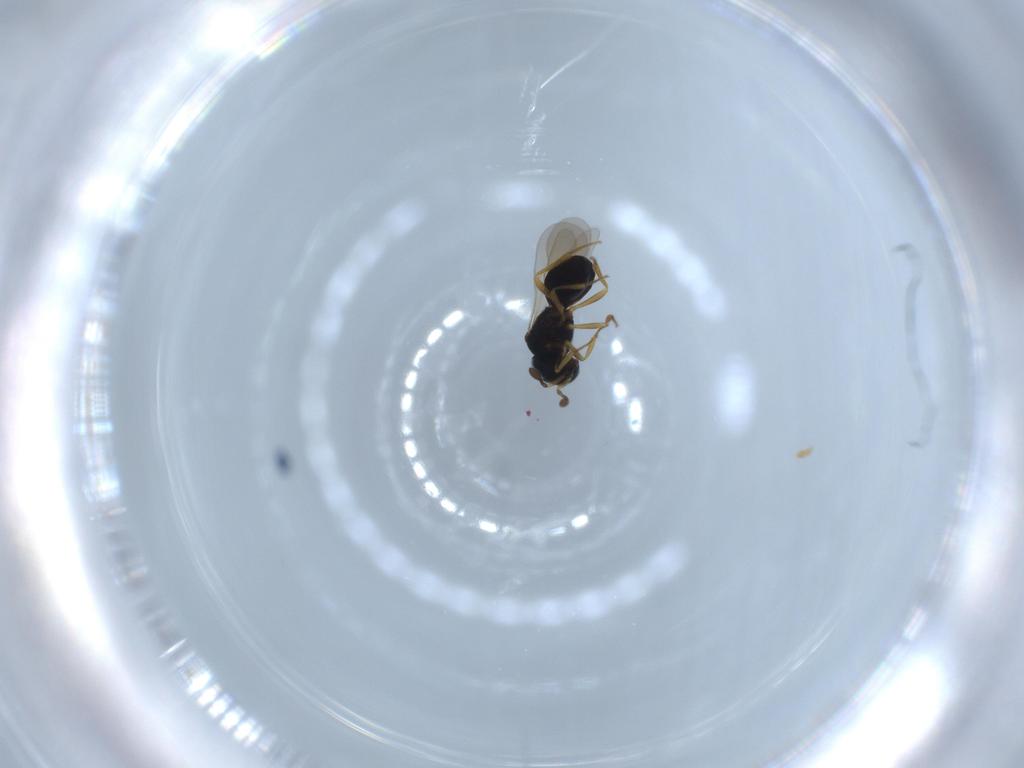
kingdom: Animalia
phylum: Arthropoda
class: Insecta
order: Hymenoptera
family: Scelionidae
